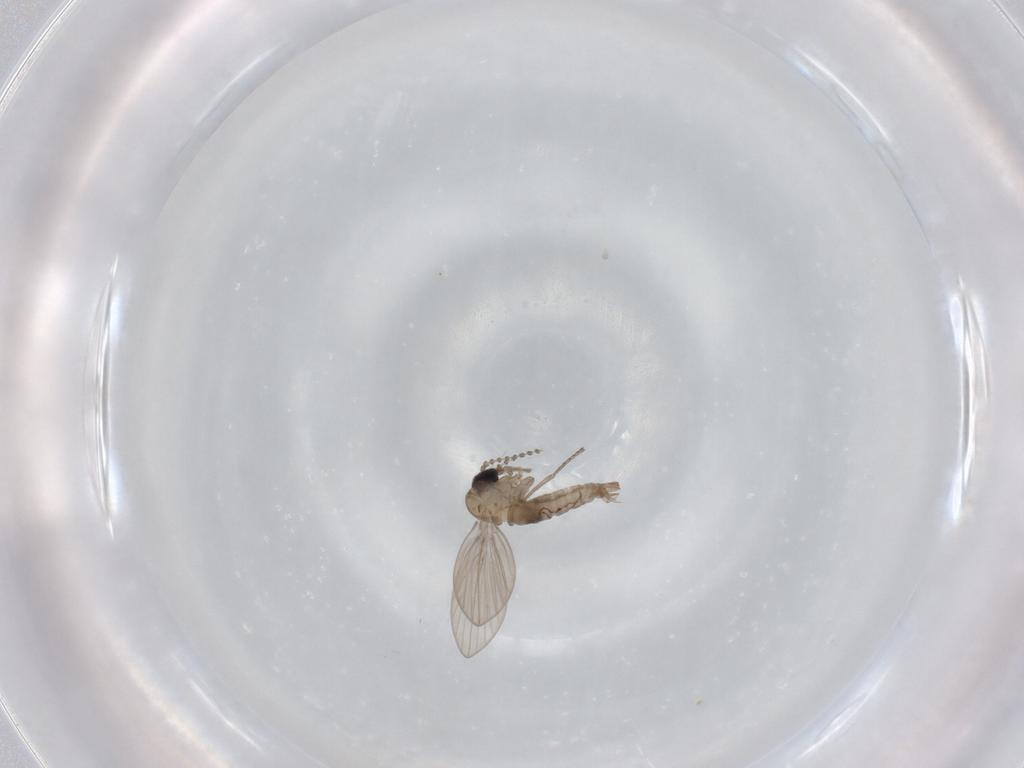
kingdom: Animalia
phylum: Arthropoda
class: Insecta
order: Diptera
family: Psychodidae
